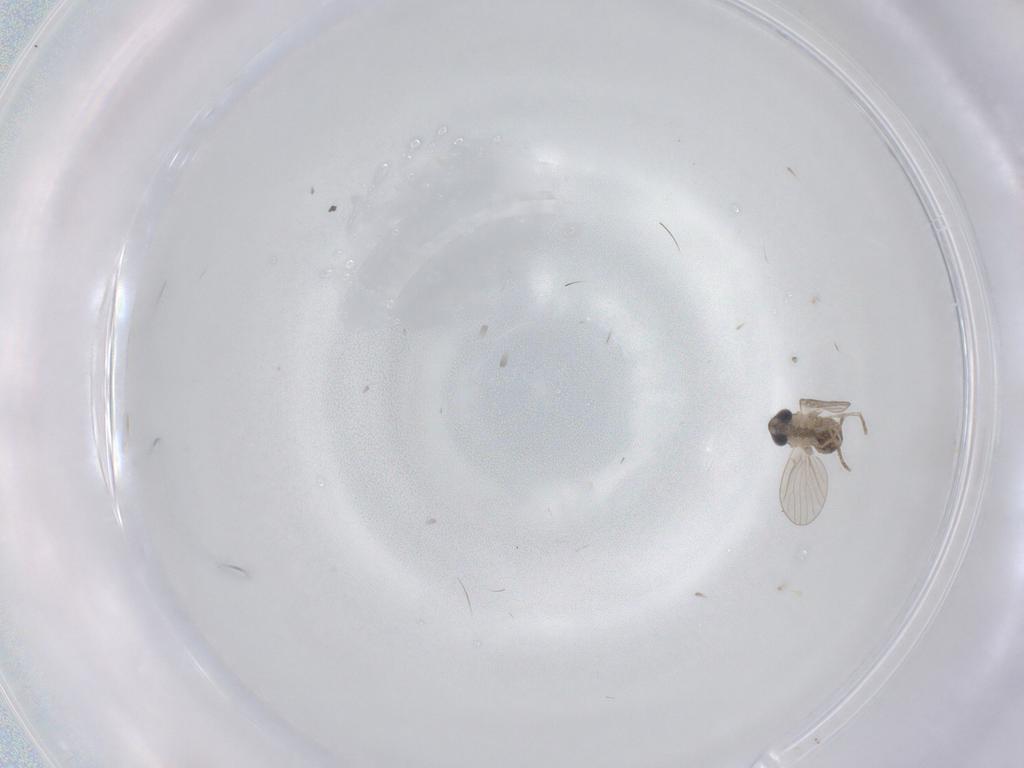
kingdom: Animalia
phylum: Arthropoda
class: Insecta
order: Diptera
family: Cecidomyiidae
